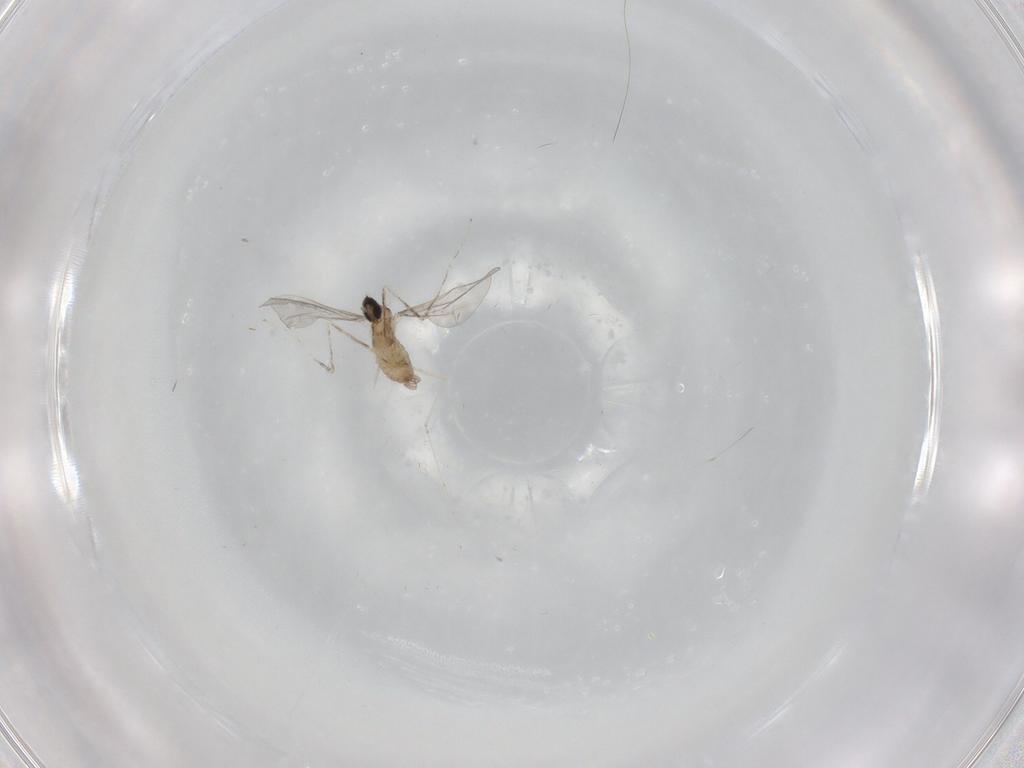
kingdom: Animalia
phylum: Arthropoda
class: Insecta
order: Diptera
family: Cecidomyiidae
